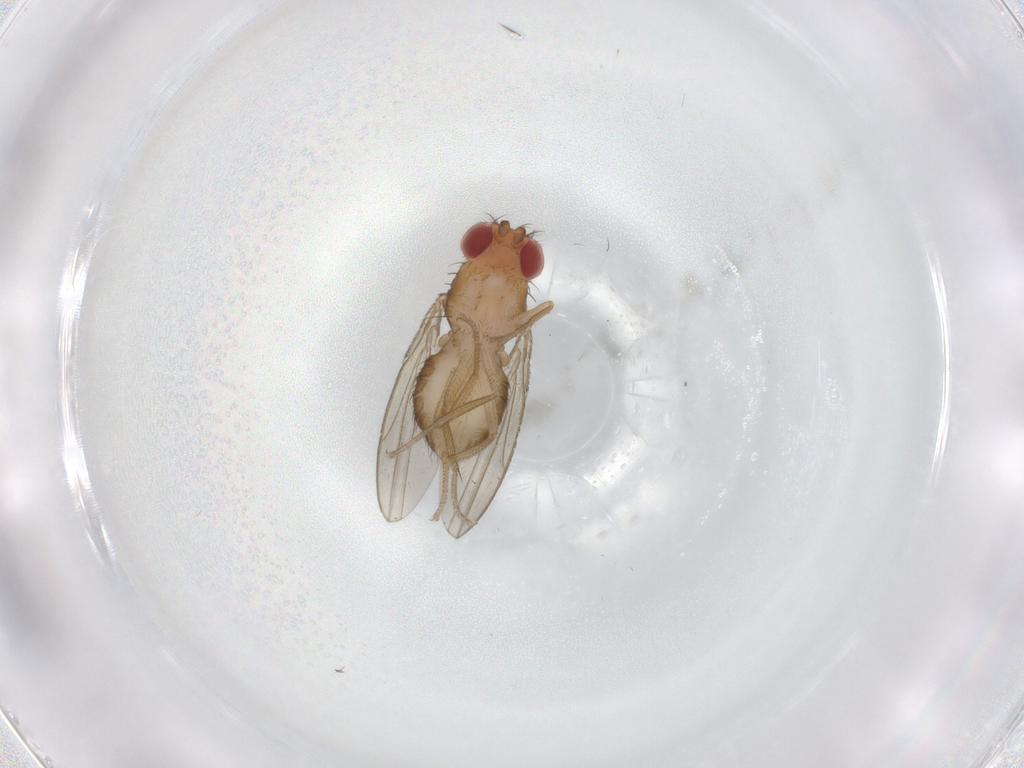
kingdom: Animalia
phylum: Arthropoda
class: Insecta
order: Diptera
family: Drosophilidae
